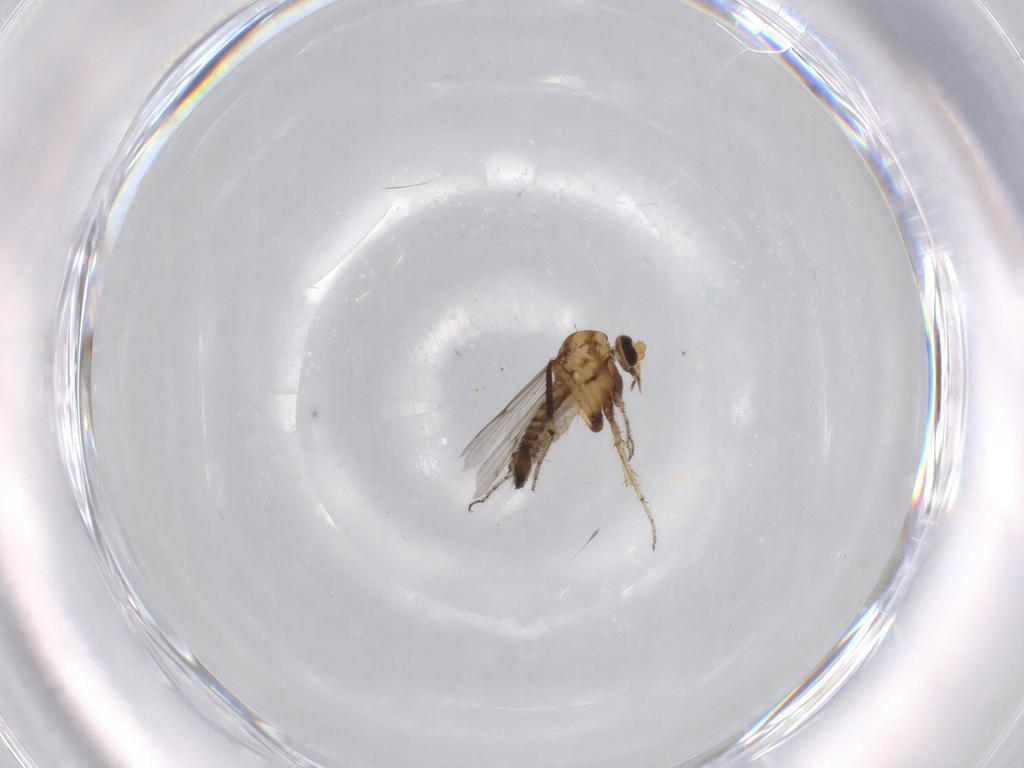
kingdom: Animalia
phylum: Arthropoda
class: Insecta
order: Diptera
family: Ceratopogonidae
